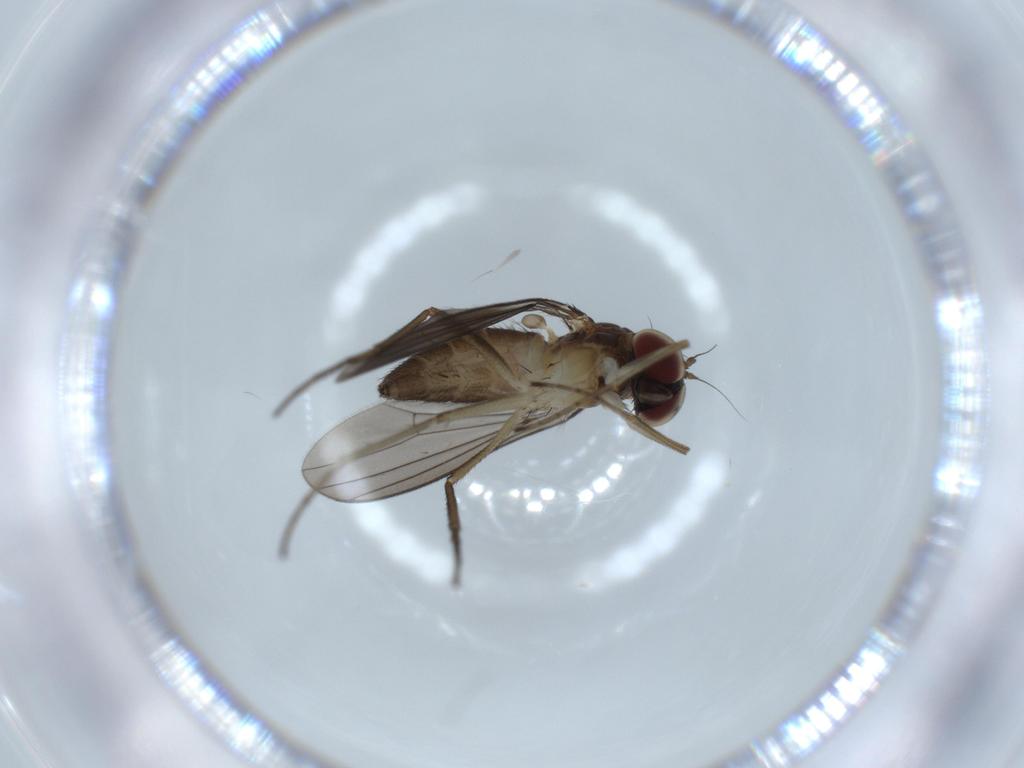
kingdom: Animalia
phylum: Arthropoda
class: Insecta
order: Diptera
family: Dolichopodidae
